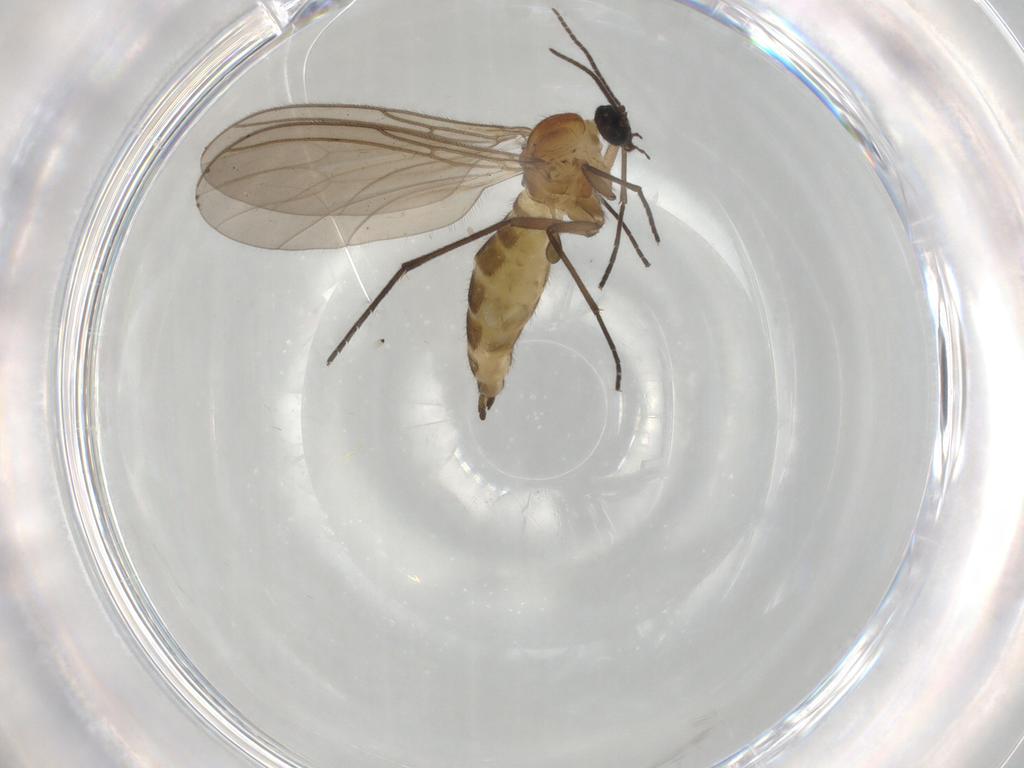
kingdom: Animalia
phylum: Arthropoda
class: Insecta
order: Diptera
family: Sciaridae
